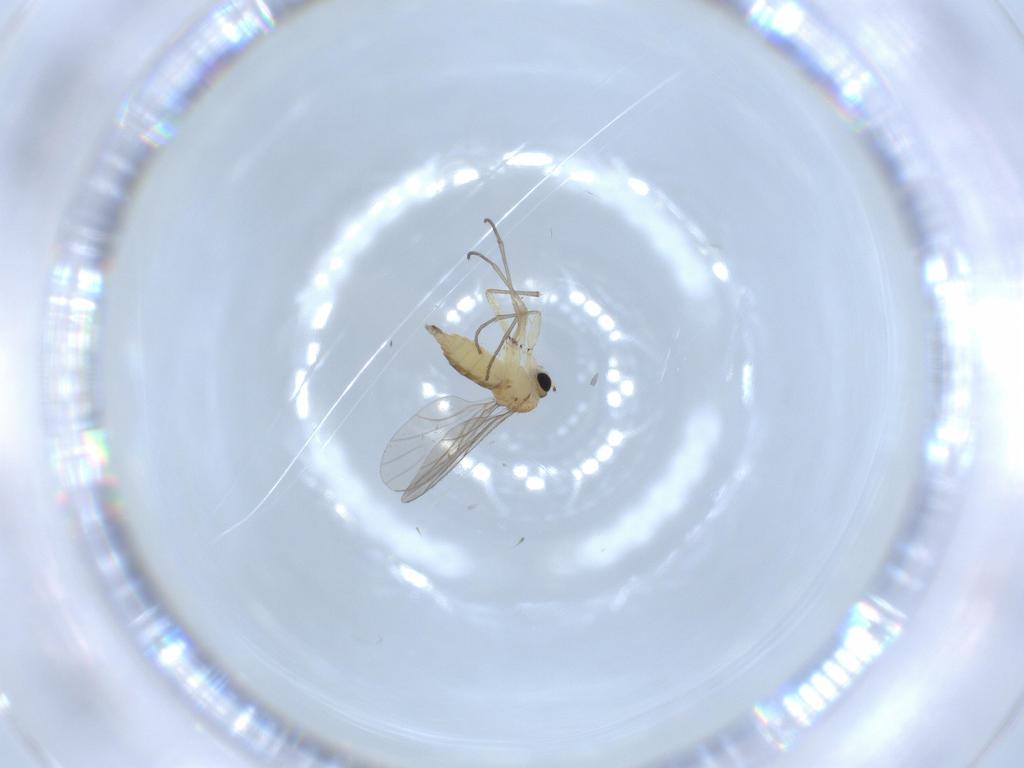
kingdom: Animalia
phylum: Arthropoda
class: Insecta
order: Diptera
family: Sciaridae
